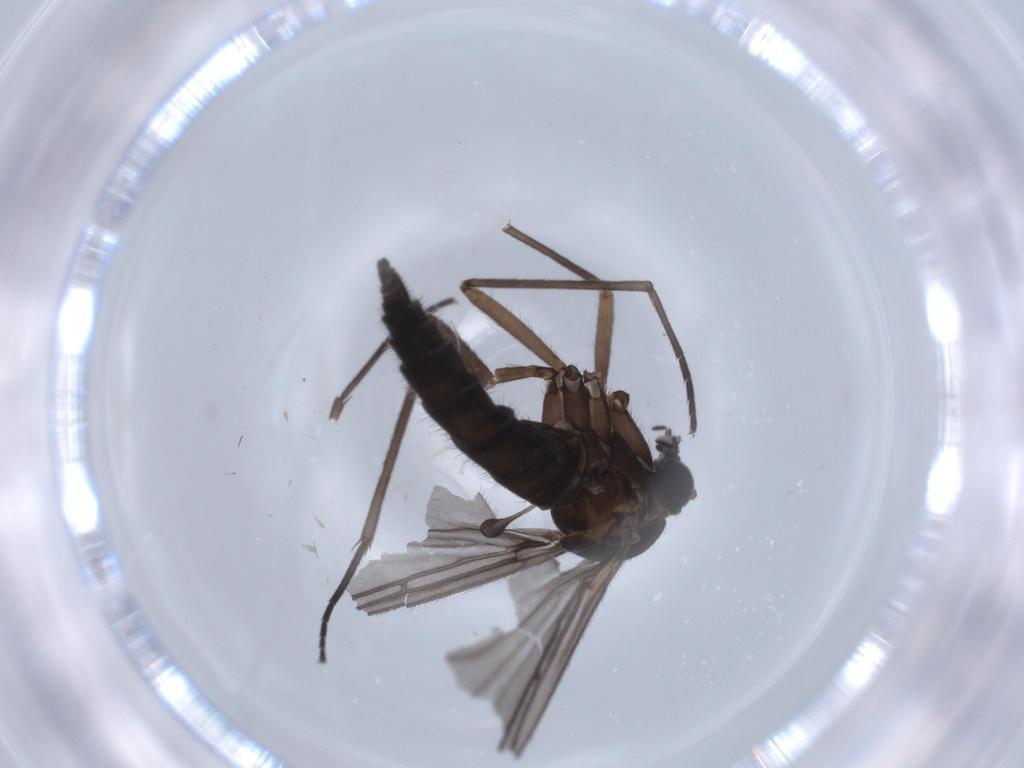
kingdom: Animalia
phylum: Arthropoda
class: Insecta
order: Diptera
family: Sciaridae
